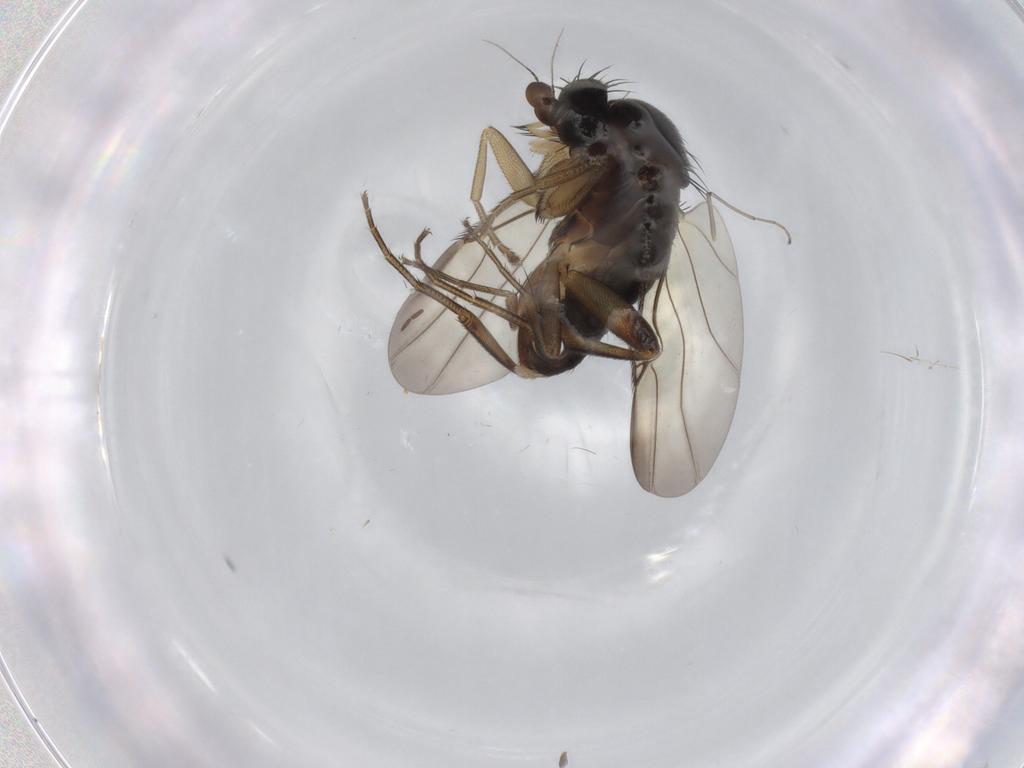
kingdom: Animalia
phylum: Arthropoda
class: Insecta
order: Diptera
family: Phoridae
